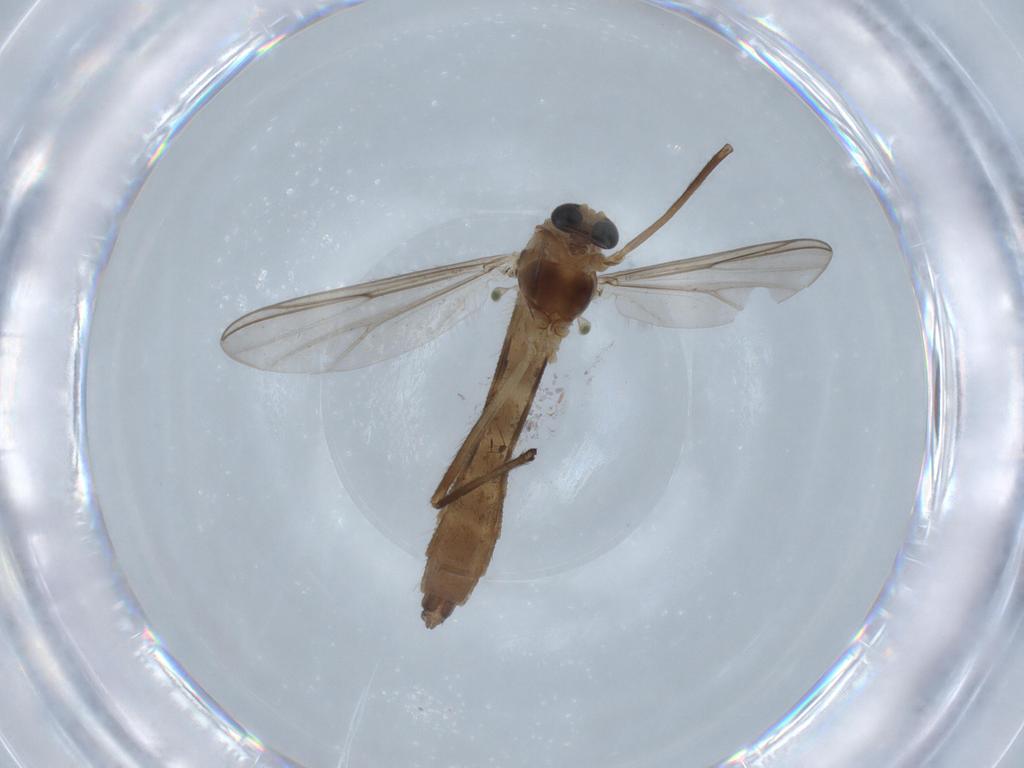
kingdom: Animalia
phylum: Arthropoda
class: Insecta
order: Diptera
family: Chironomidae
